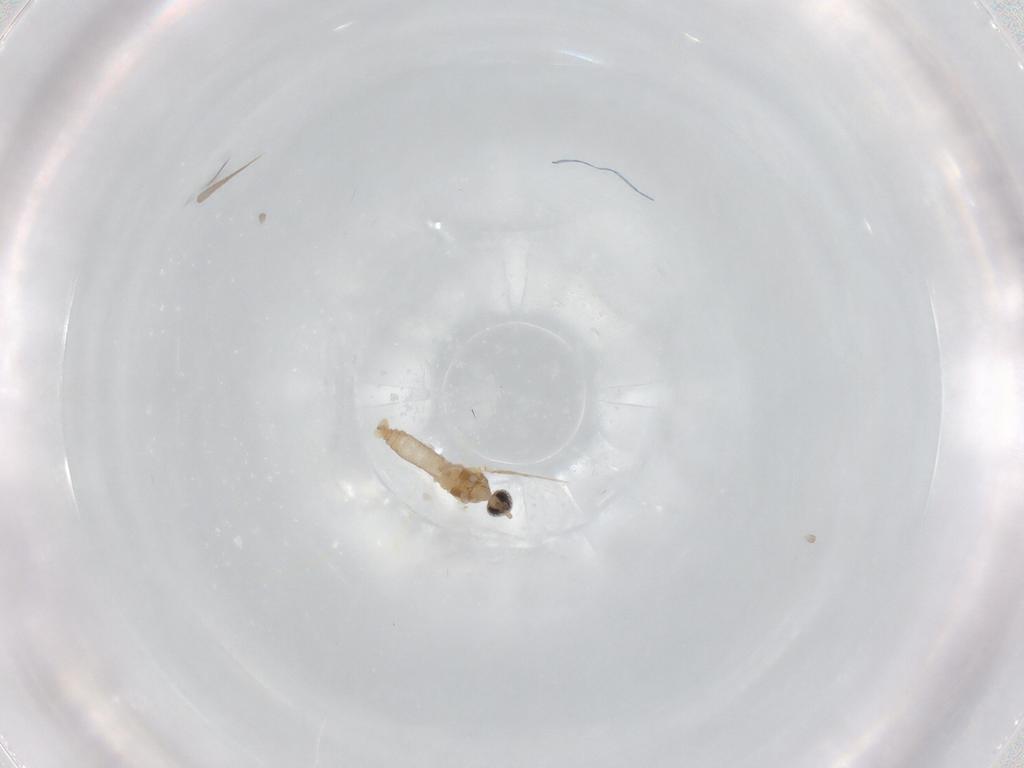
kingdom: Animalia
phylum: Arthropoda
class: Insecta
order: Diptera
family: Cecidomyiidae
